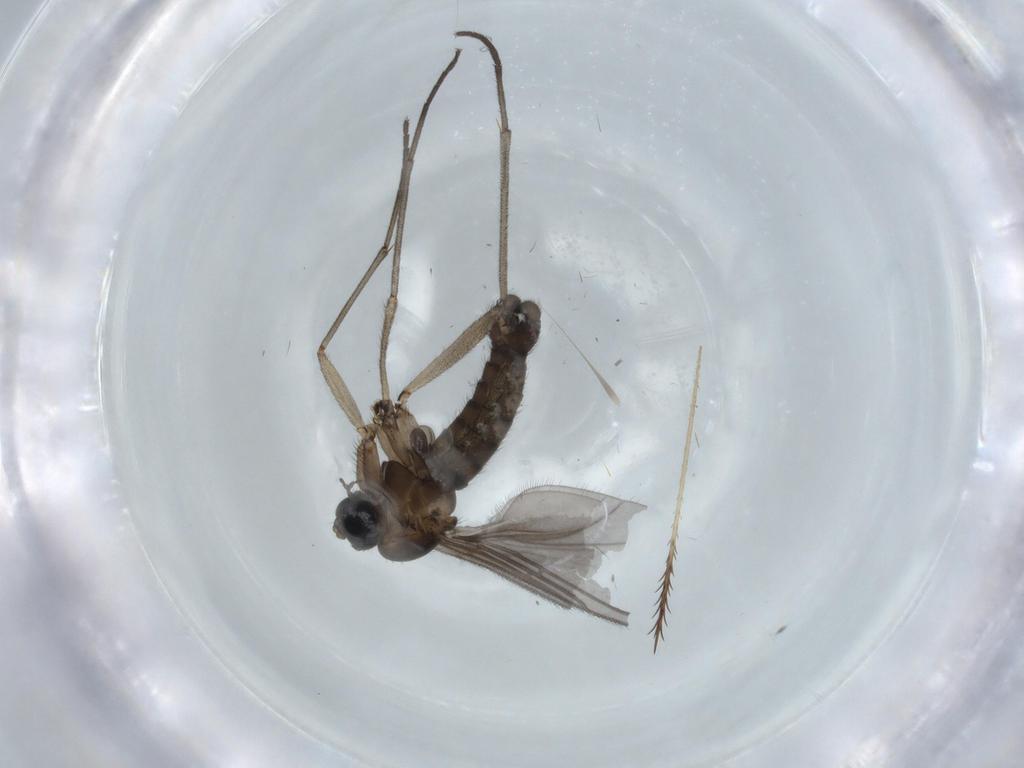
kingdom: Animalia
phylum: Arthropoda
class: Insecta
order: Diptera
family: Sciaridae
